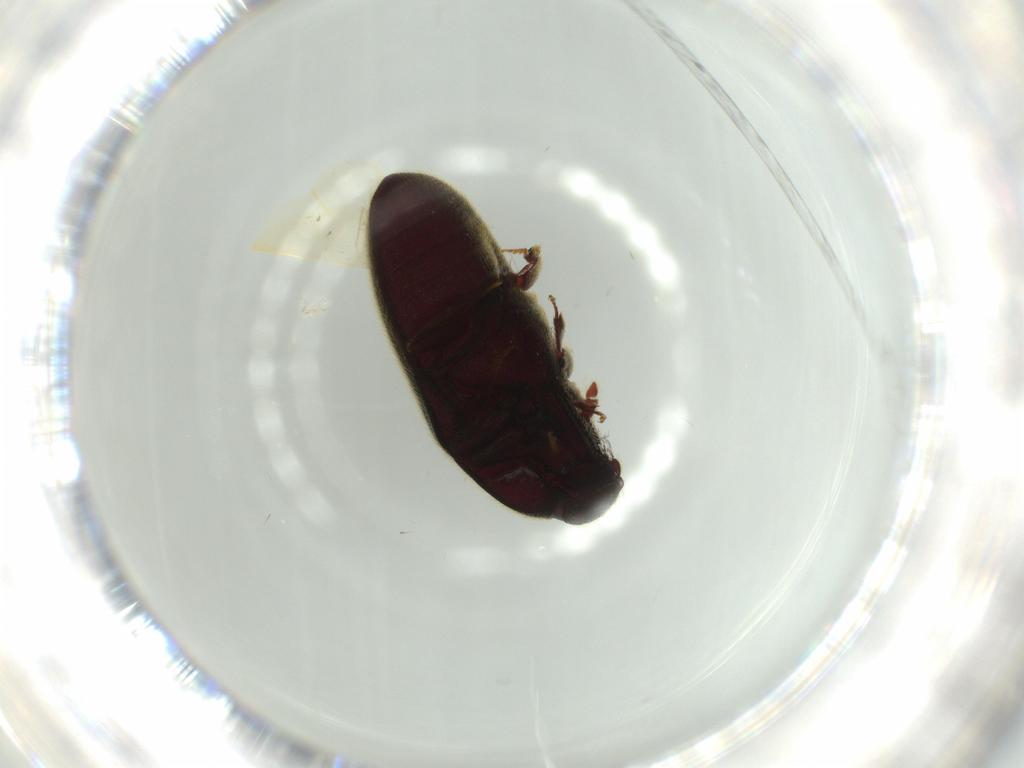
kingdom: Animalia
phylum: Arthropoda
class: Insecta
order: Coleoptera
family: Throscidae
